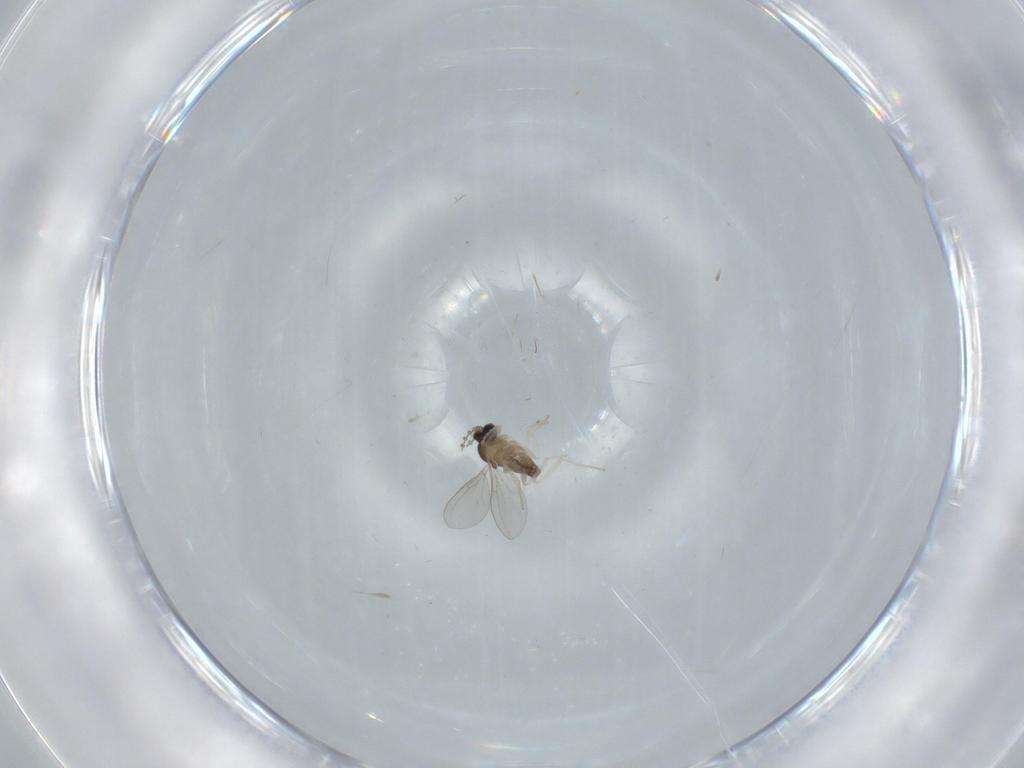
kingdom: Animalia
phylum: Arthropoda
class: Insecta
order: Diptera
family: Cecidomyiidae
